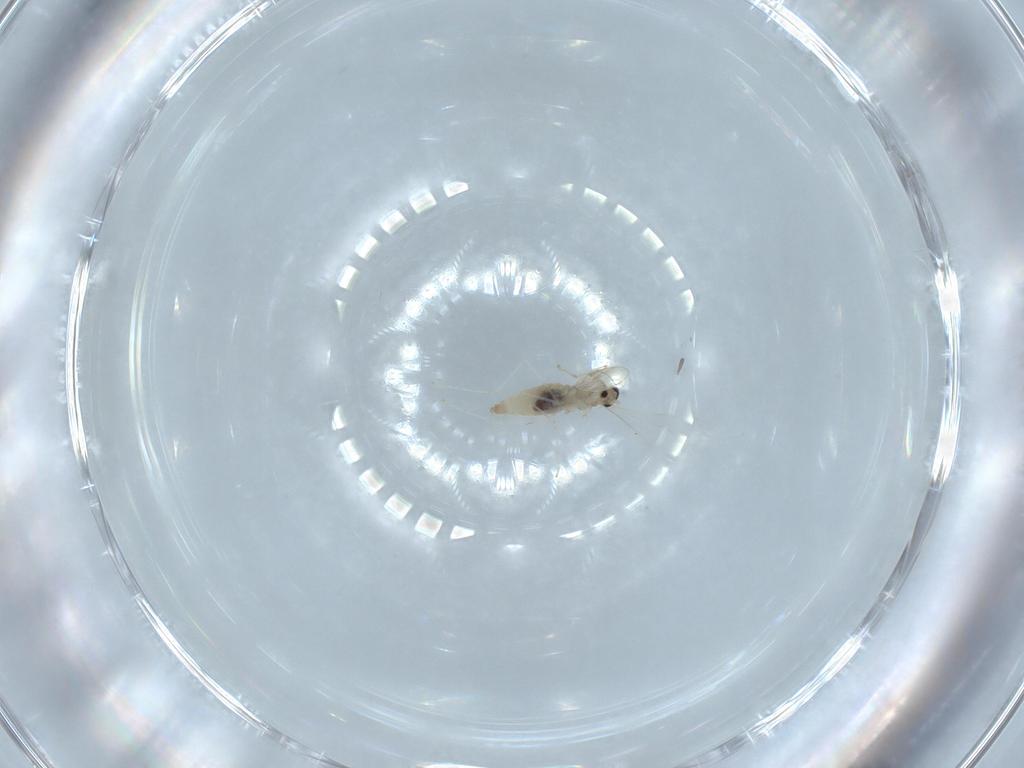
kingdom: Animalia
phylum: Arthropoda
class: Insecta
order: Diptera
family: Cecidomyiidae
